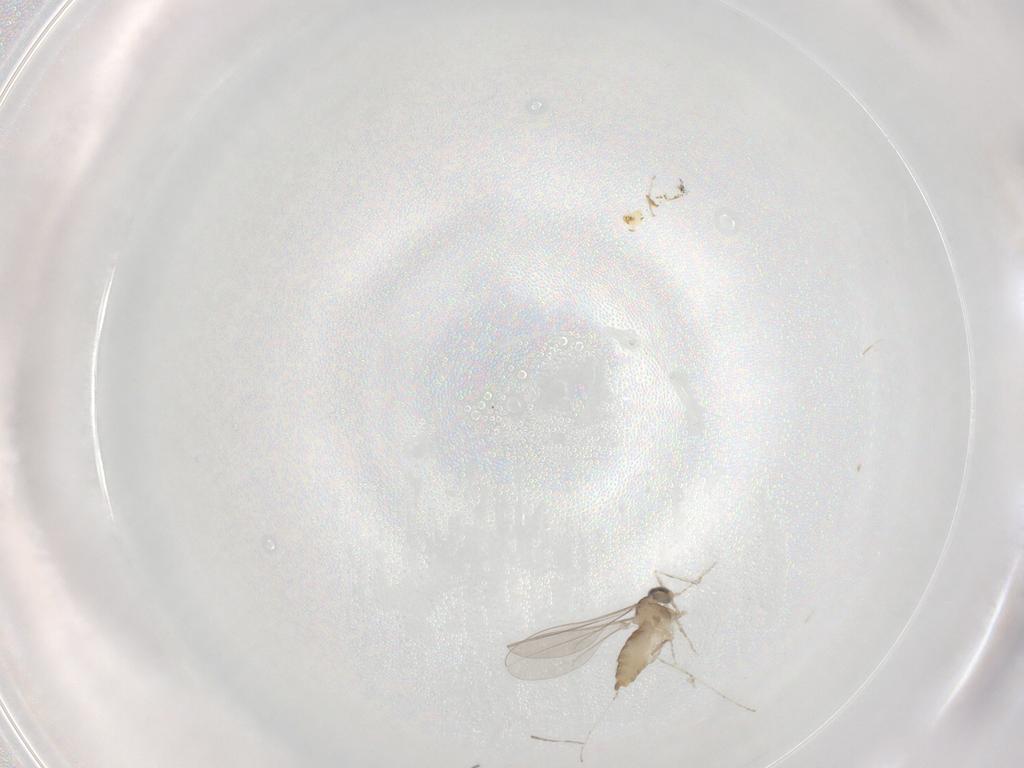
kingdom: Animalia
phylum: Arthropoda
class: Insecta
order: Diptera
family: Cecidomyiidae
